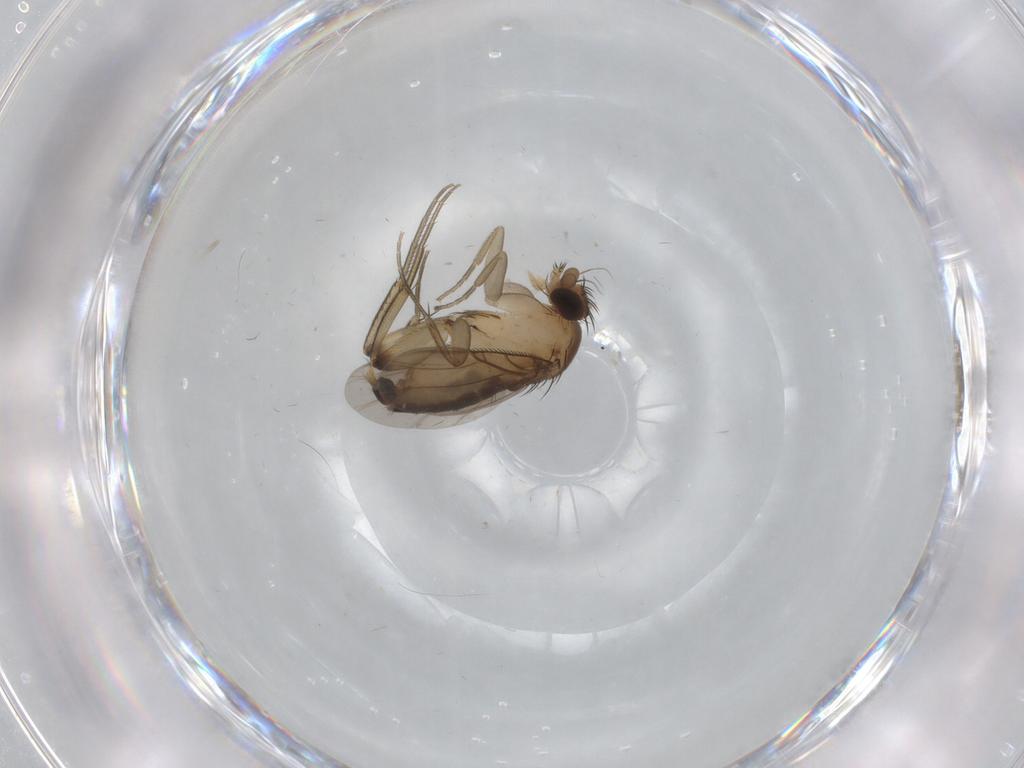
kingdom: Animalia
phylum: Arthropoda
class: Insecta
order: Diptera
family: Phoridae
